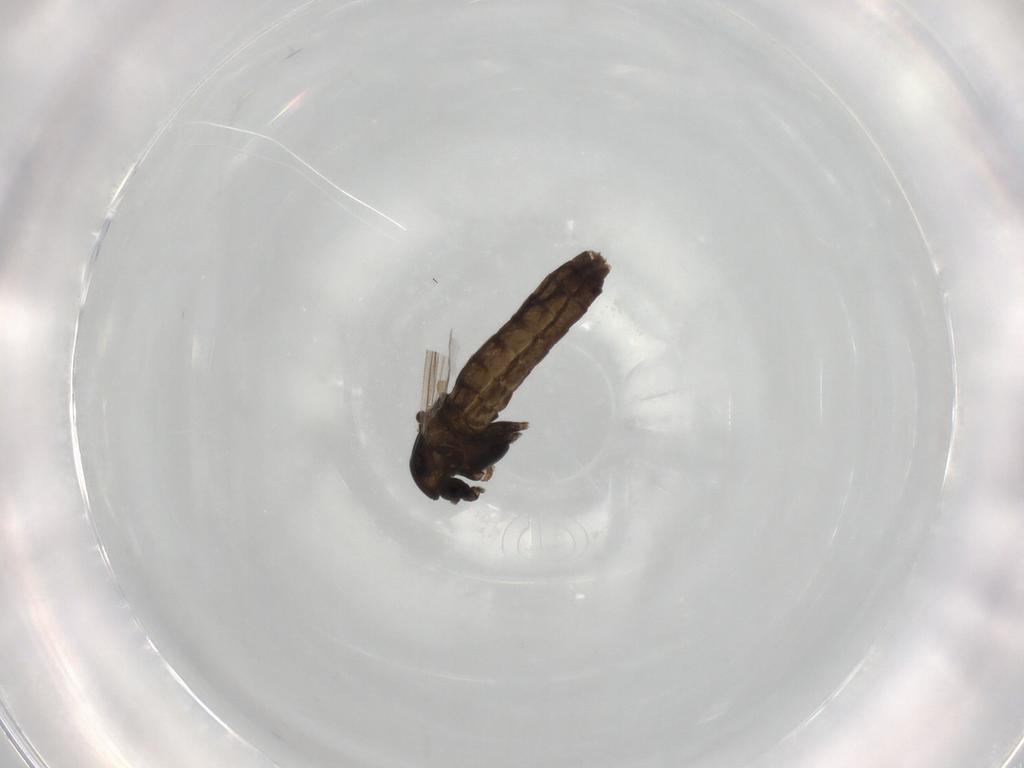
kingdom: Animalia
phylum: Arthropoda
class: Insecta
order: Diptera
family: Chironomidae
